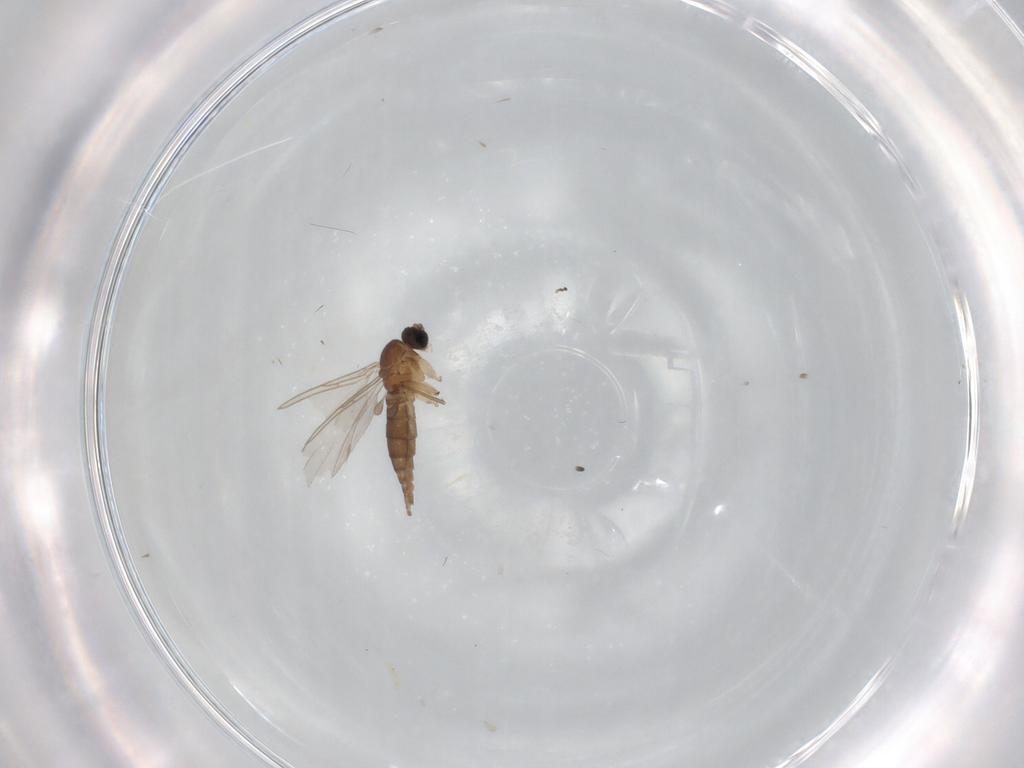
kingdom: Animalia
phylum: Arthropoda
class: Insecta
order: Diptera
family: Sciaridae
